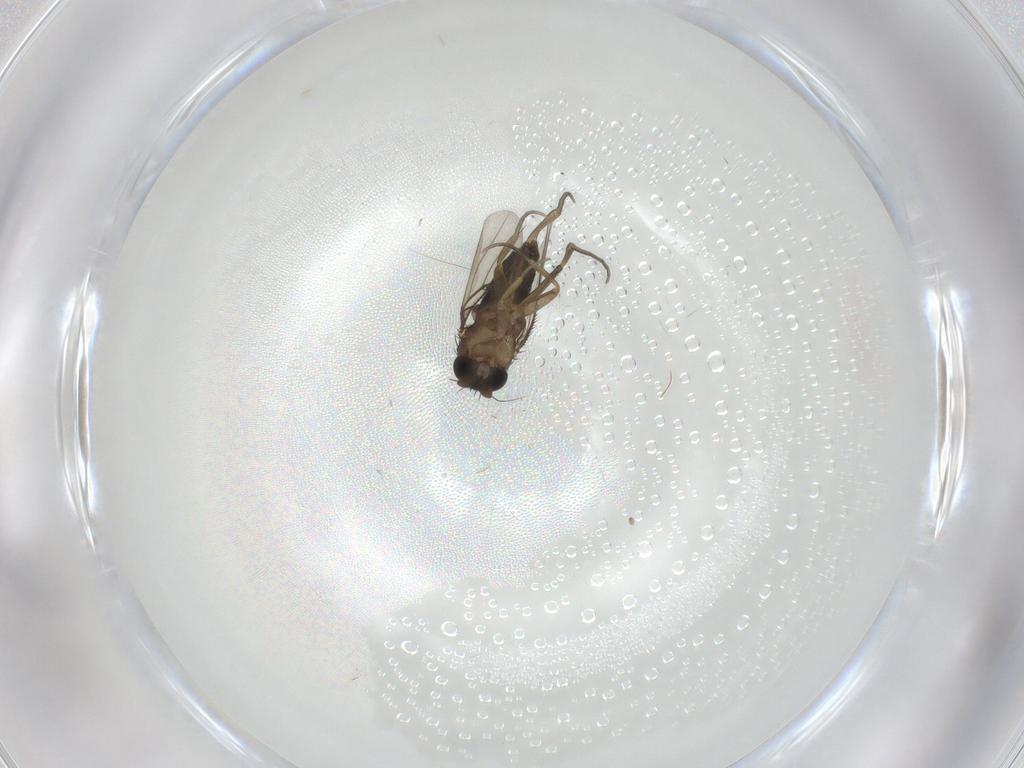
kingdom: Animalia
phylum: Arthropoda
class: Insecta
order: Diptera
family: Phoridae
